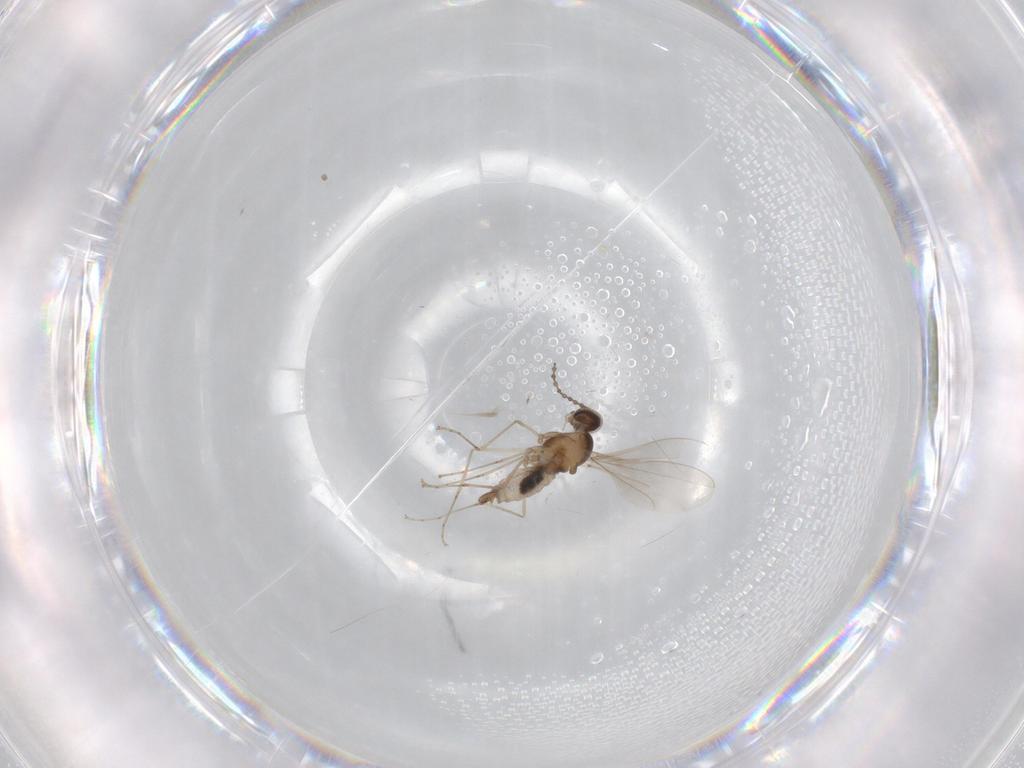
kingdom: Animalia
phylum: Arthropoda
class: Insecta
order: Diptera
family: Cecidomyiidae
